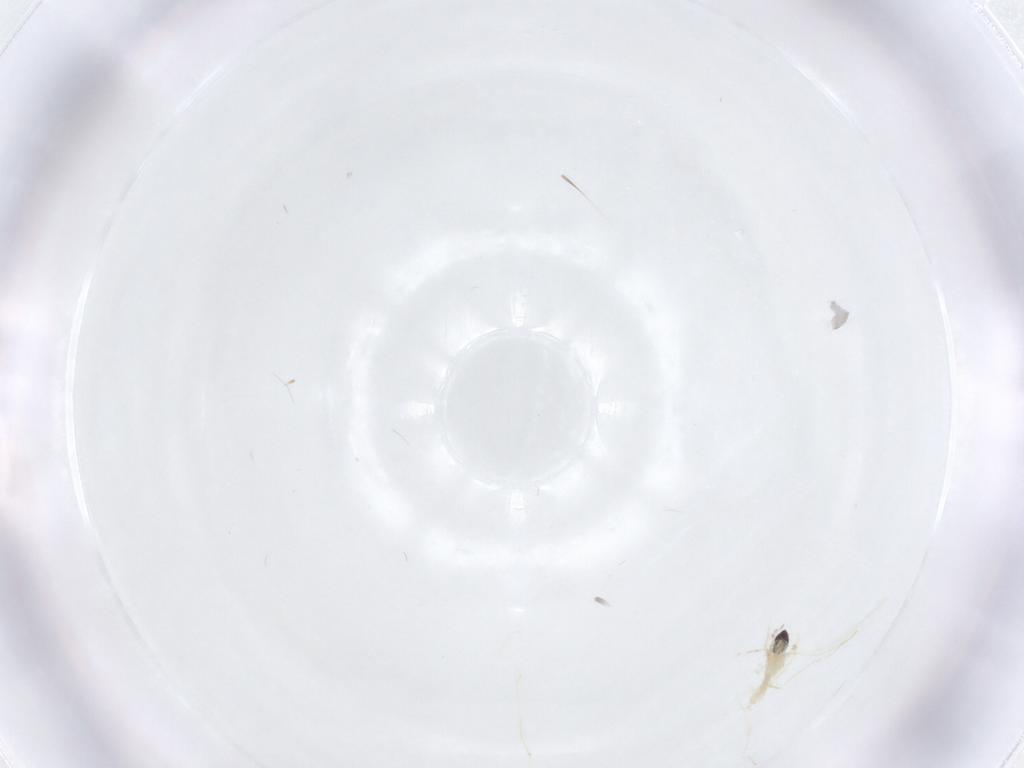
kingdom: Animalia
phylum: Arthropoda
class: Insecta
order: Diptera
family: Cecidomyiidae
